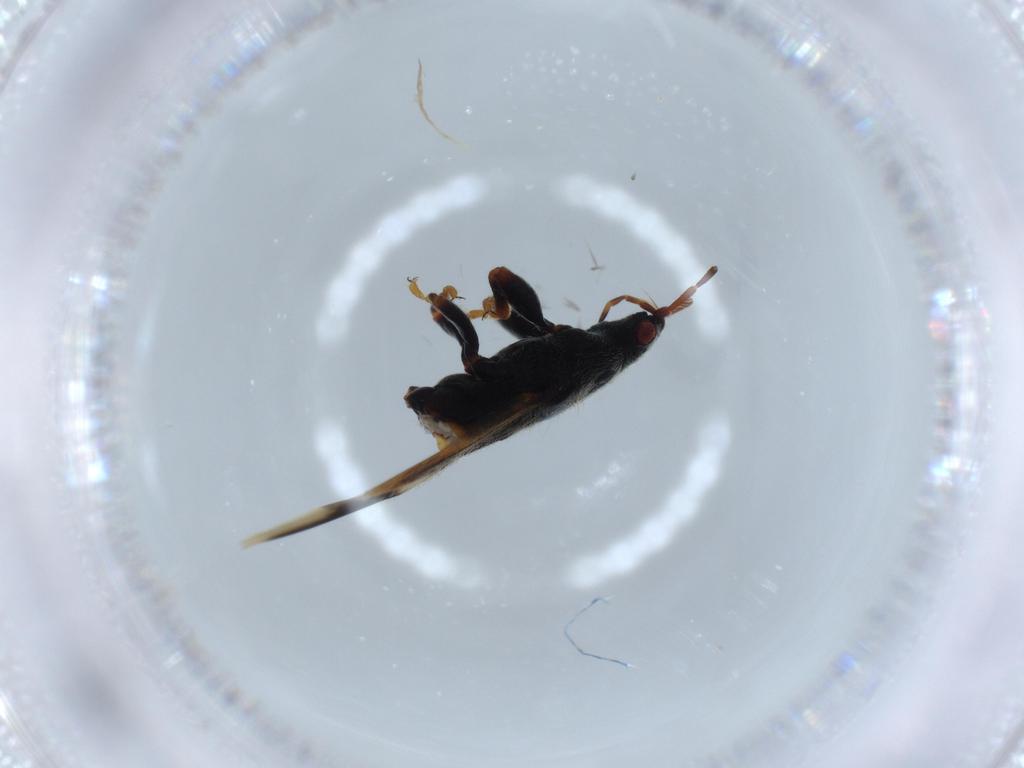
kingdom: Animalia
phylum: Arthropoda
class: Insecta
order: Hemiptera
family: Blissidae
